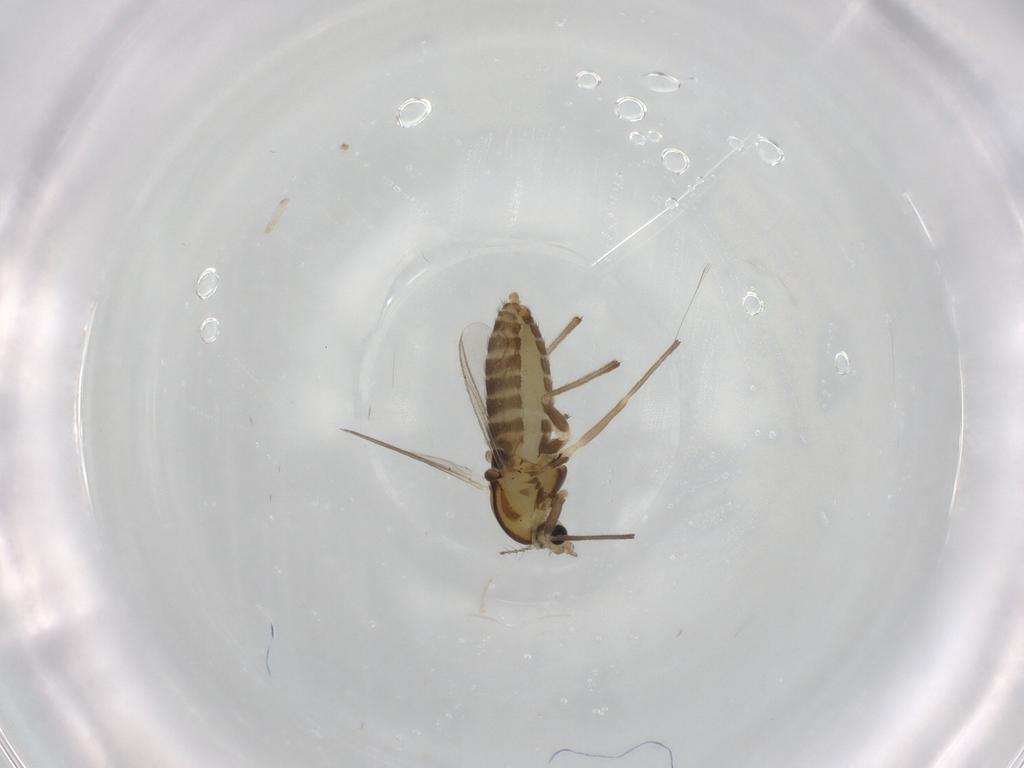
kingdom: Animalia
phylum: Arthropoda
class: Insecta
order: Diptera
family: Chironomidae
